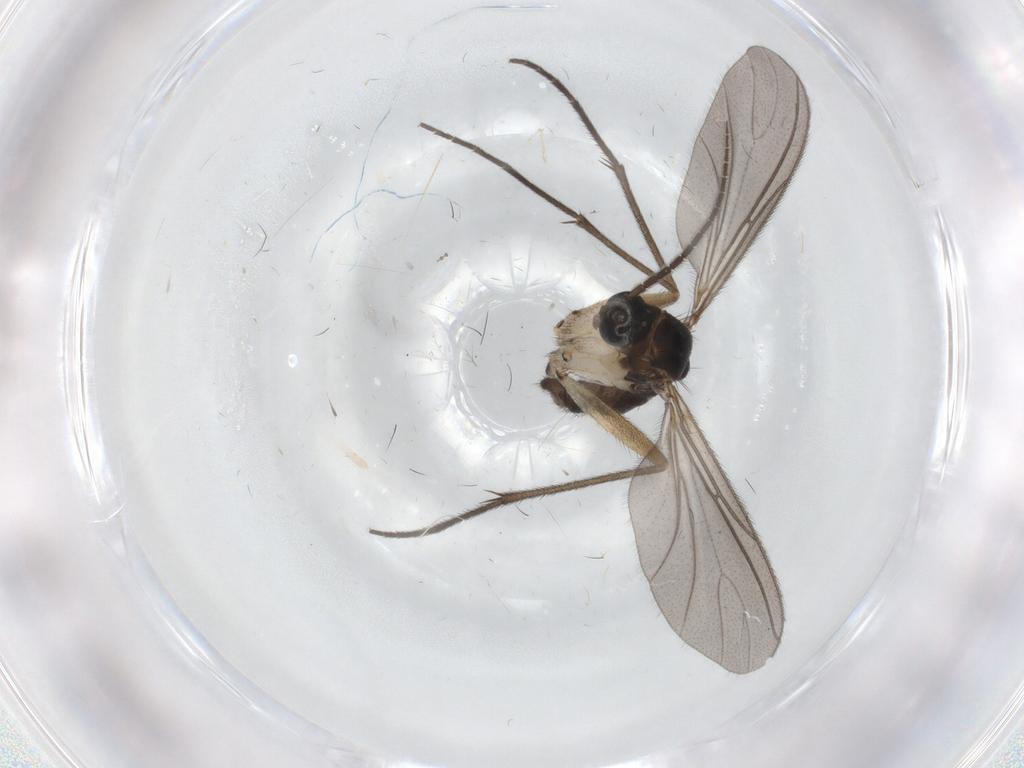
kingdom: Animalia
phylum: Arthropoda
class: Insecta
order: Diptera
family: Sciaridae
